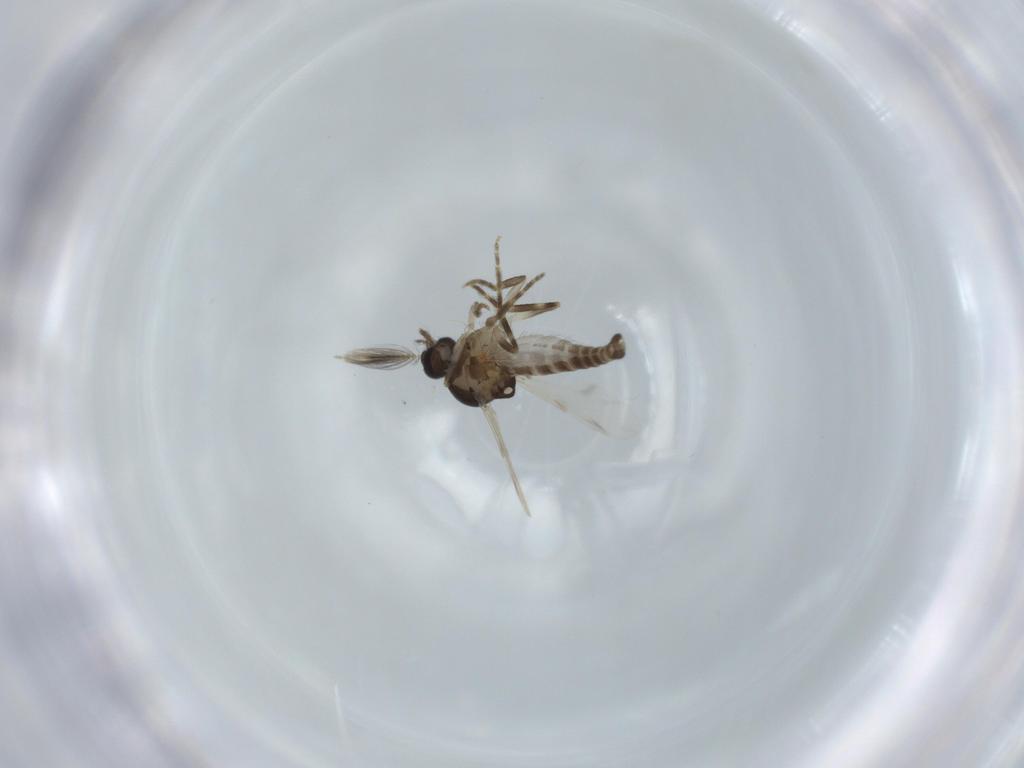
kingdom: Animalia
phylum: Arthropoda
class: Insecta
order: Diptera
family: Ceratopogonidae
